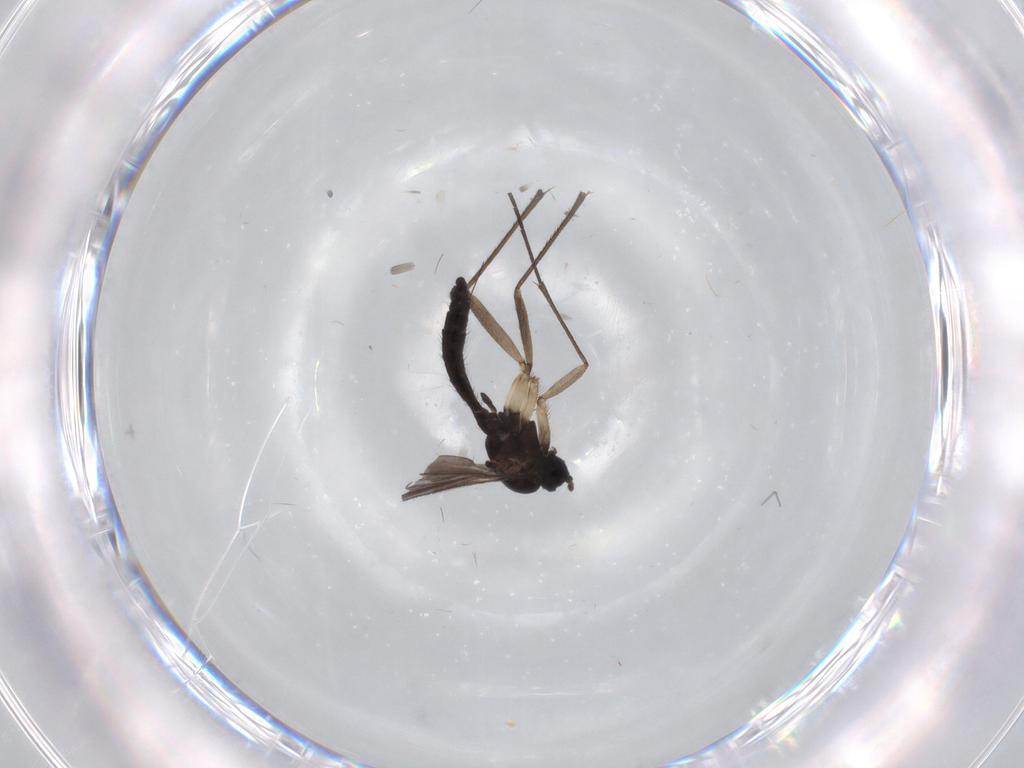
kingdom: Animalia
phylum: Arthropoda
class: Insecta
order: Diptera
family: Sciaridae
